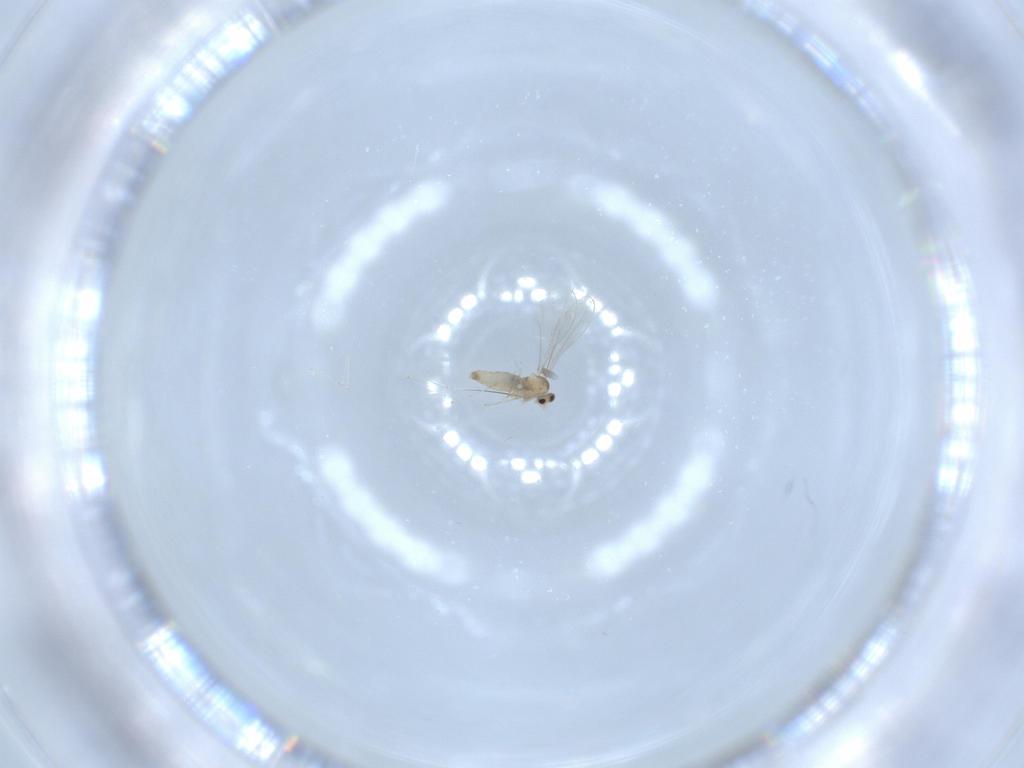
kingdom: Animalia
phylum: Arthropoda
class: Insecta
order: Diptera
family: Cecidomyiidae
